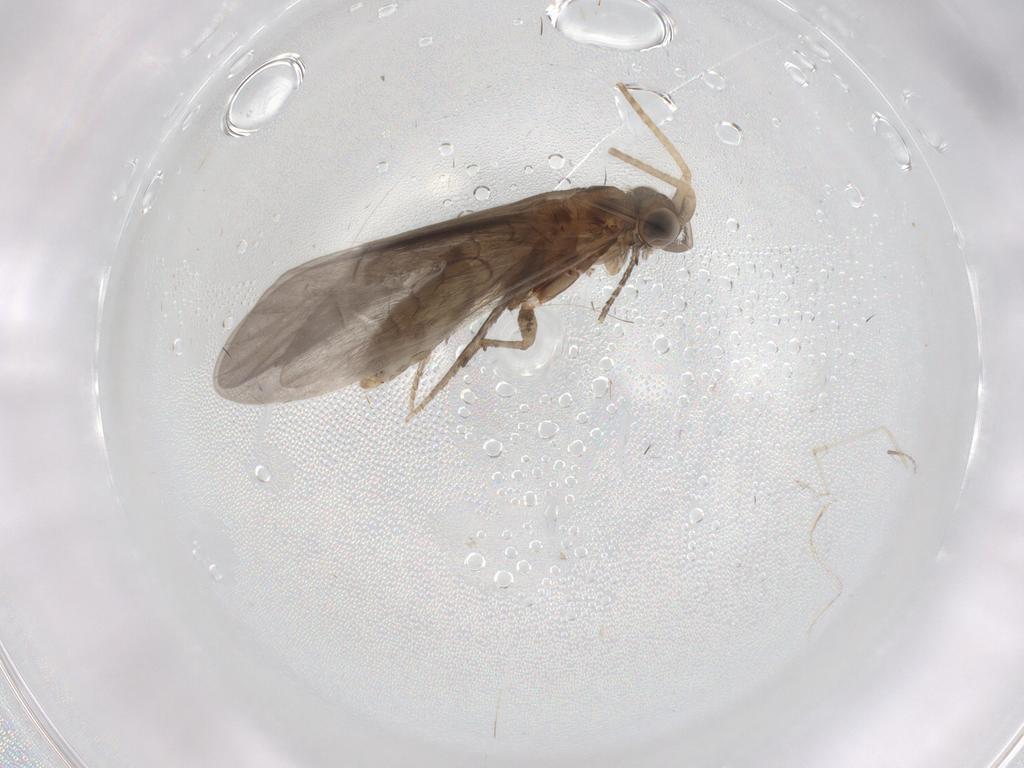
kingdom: Animalia
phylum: Arthropoda
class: Insecta
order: Trichoptera
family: Helicopsychidae
